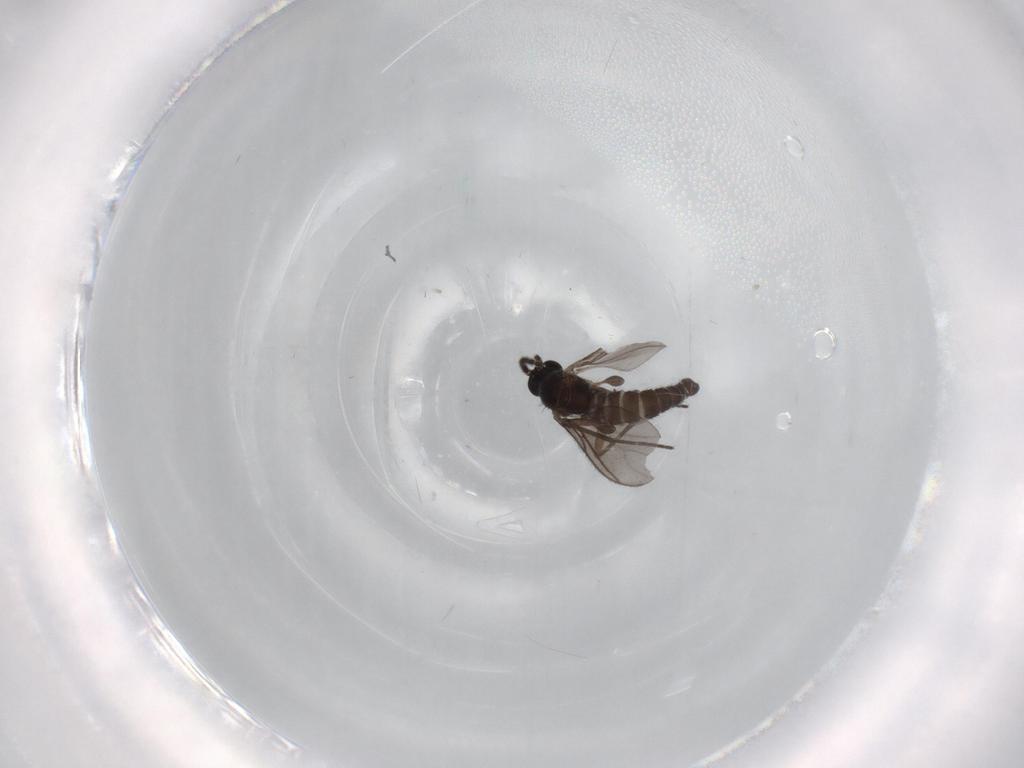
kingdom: Animalia
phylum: Arthropoda
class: Insecta
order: Diptera
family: Sciaridae
